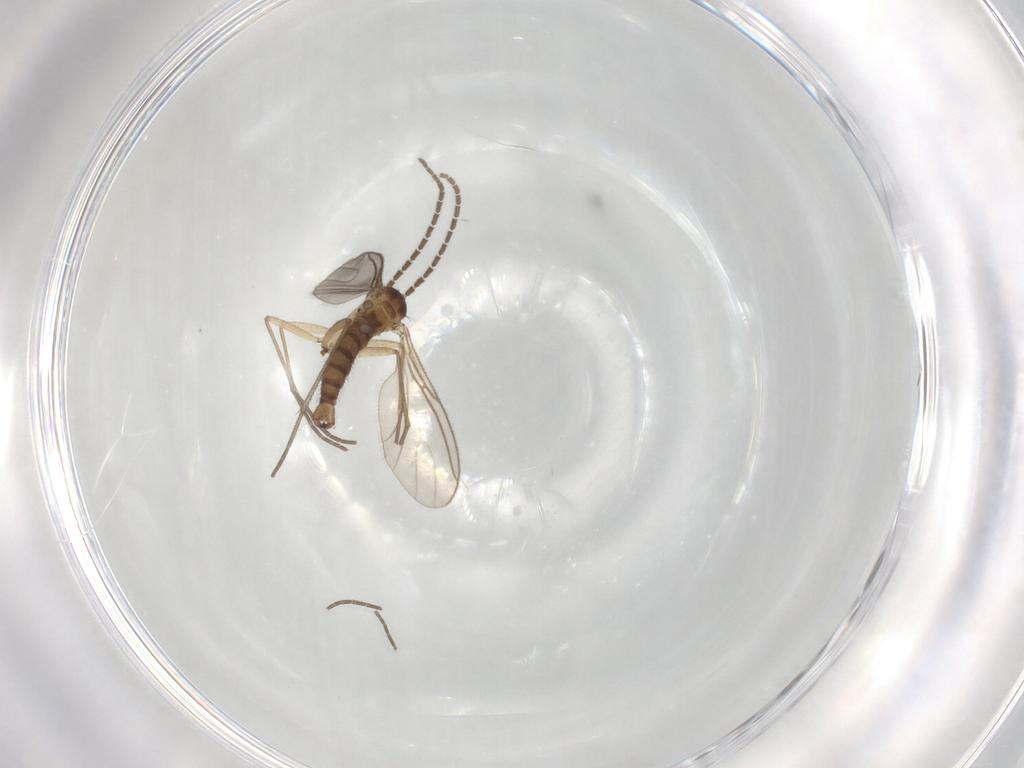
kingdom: Animalia
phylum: Arthropoda
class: Insecta
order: Diptera
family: Sciaridae
